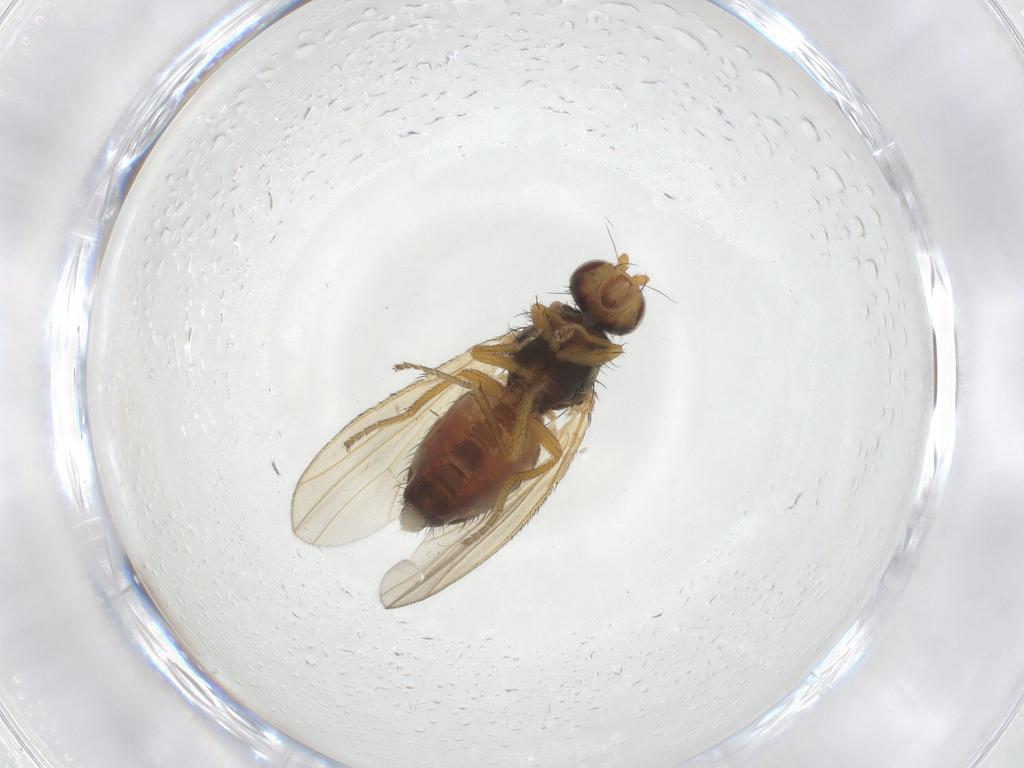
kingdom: Animalia
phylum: Arthropoda
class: Insecta
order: Diptera
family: Heleomyzidae
